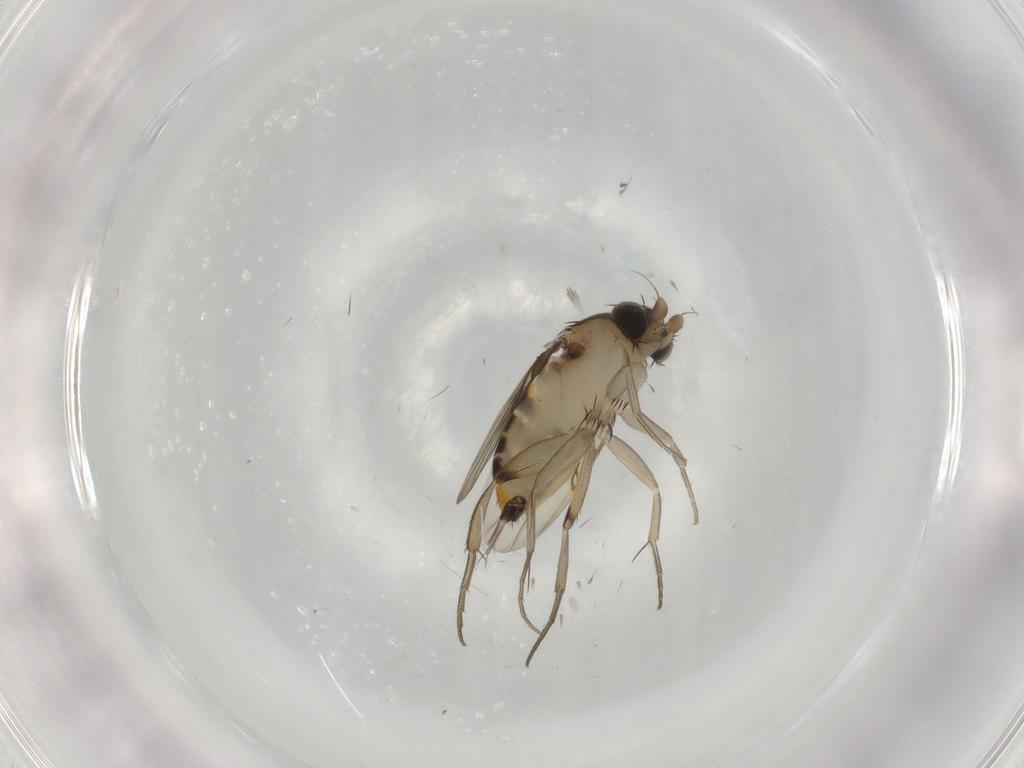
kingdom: Animalia
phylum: Arthropoda
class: Insecta
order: Diptera
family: Phoridae
